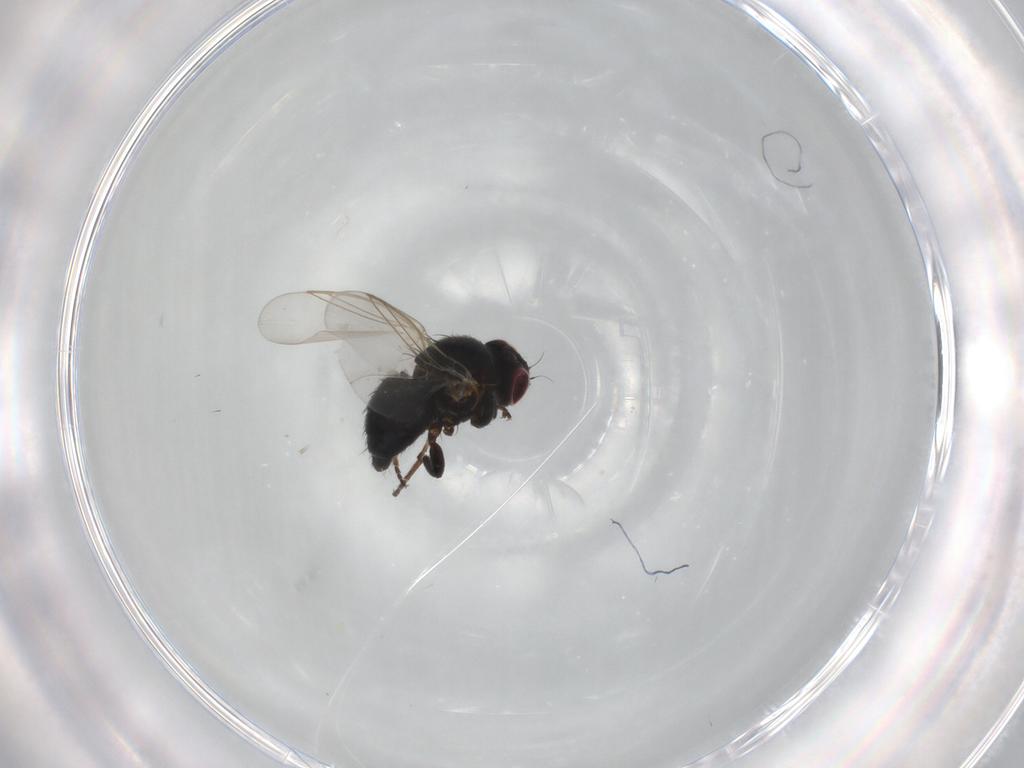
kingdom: Animalia
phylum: Arthropoda
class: Insecta
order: Diptera
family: Agromyzidae
